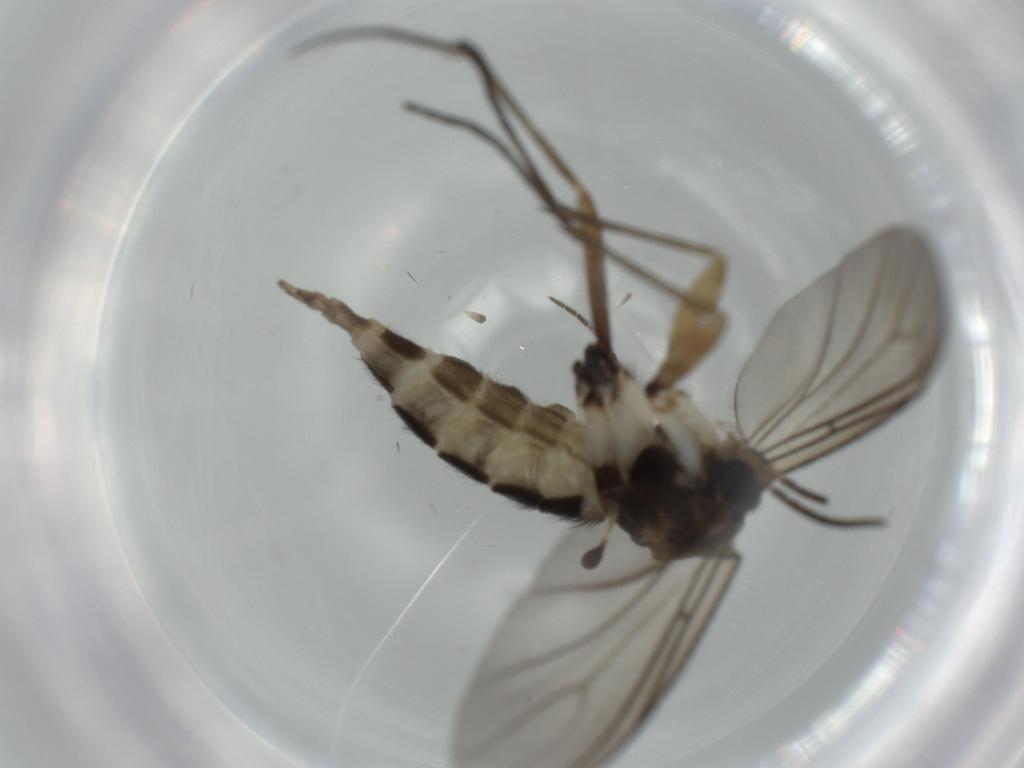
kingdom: Animalia
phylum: Arthropoda
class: Insecta
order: Diptera
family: Sciaridae
